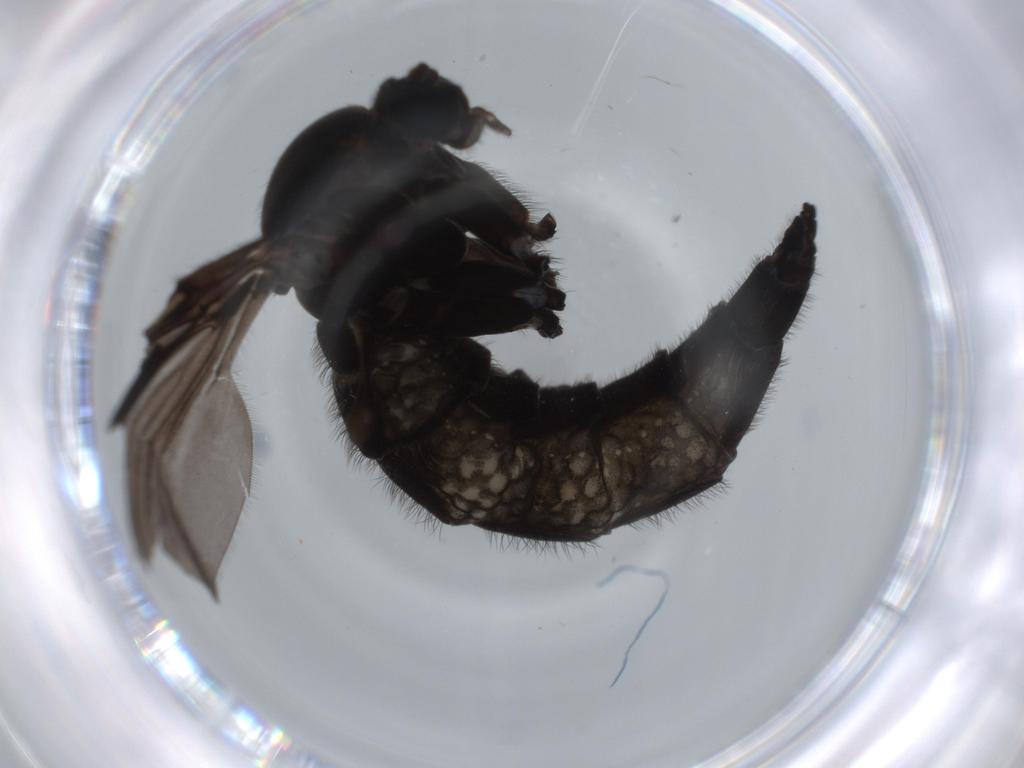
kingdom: Animalia
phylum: Arthropoda
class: Insecta
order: Diptera
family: Sciaridae
